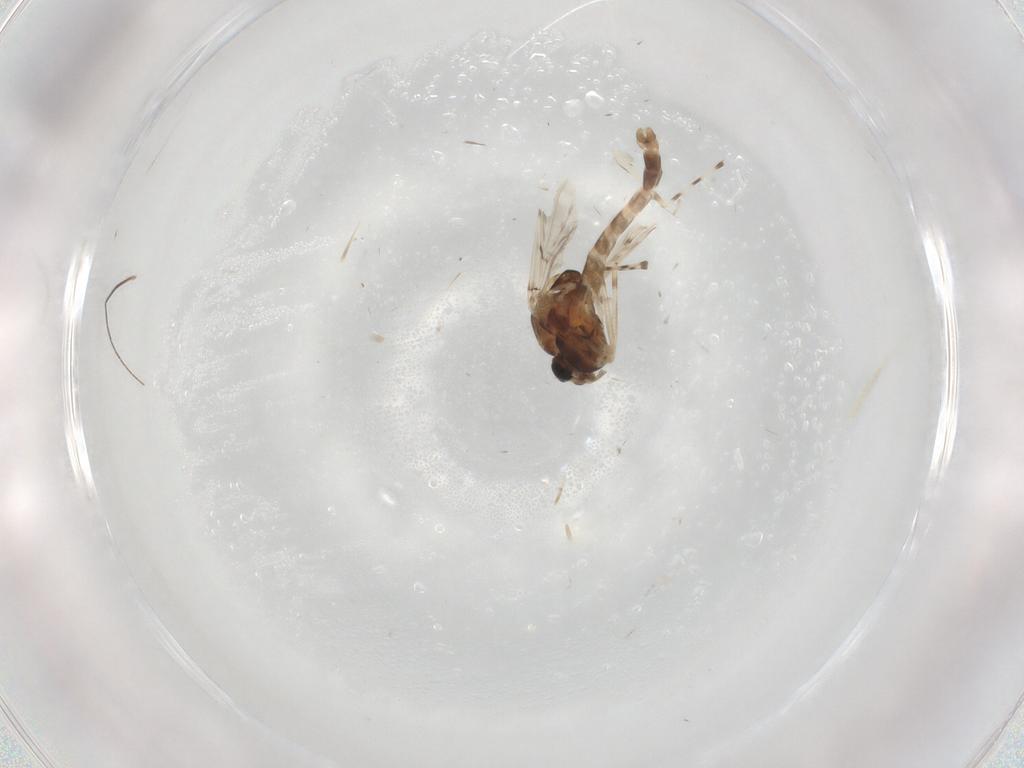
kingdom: Animalia
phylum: Arthropoda
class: Insecta
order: Diptera
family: Chironomidae
